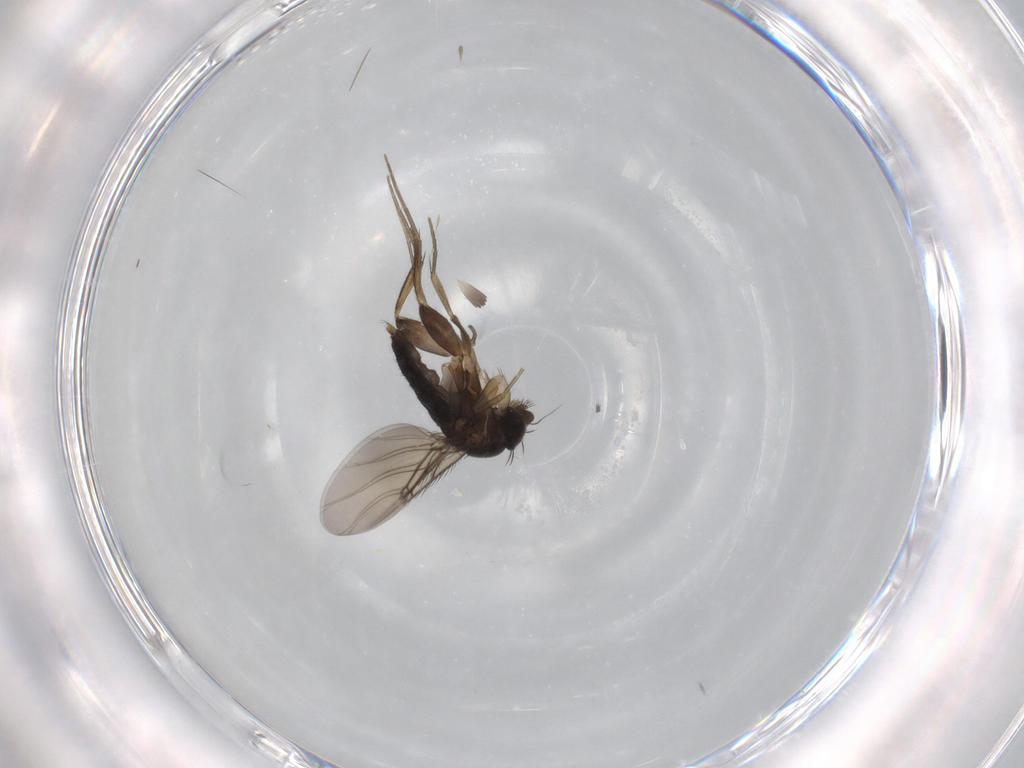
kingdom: Animalia
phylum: Arthropoda
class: Insecta
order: Diptera
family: Phoridae
